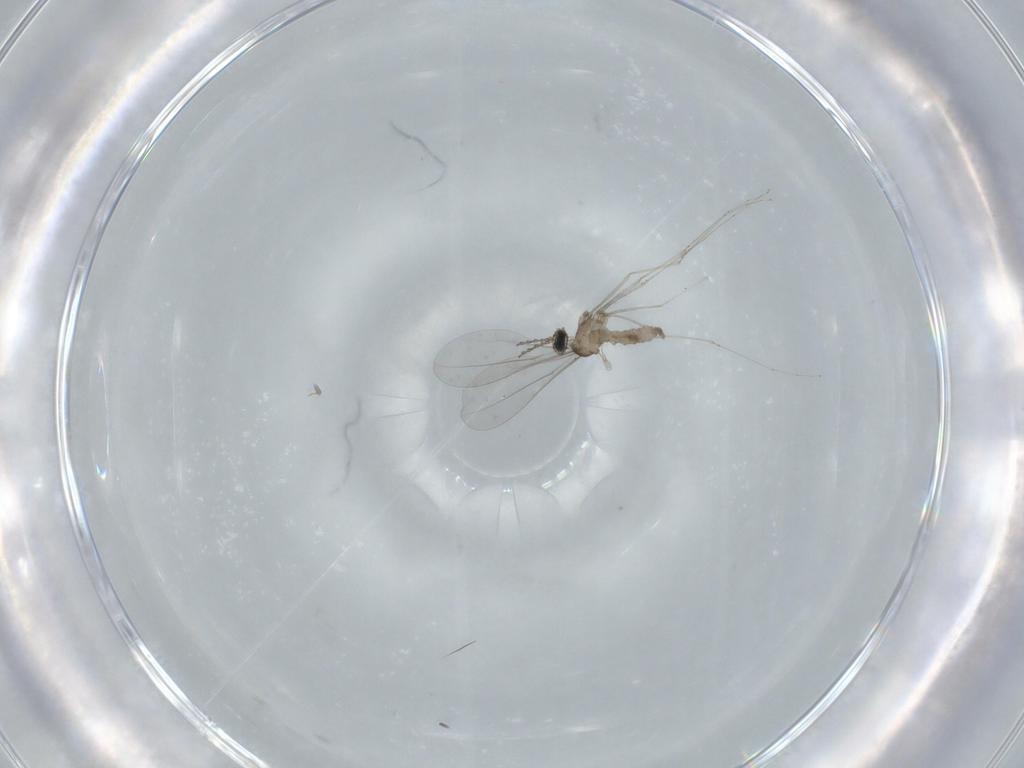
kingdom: Animalia
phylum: Arthropoda
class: Insecta
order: Diptera
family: Cecidomyiidae
